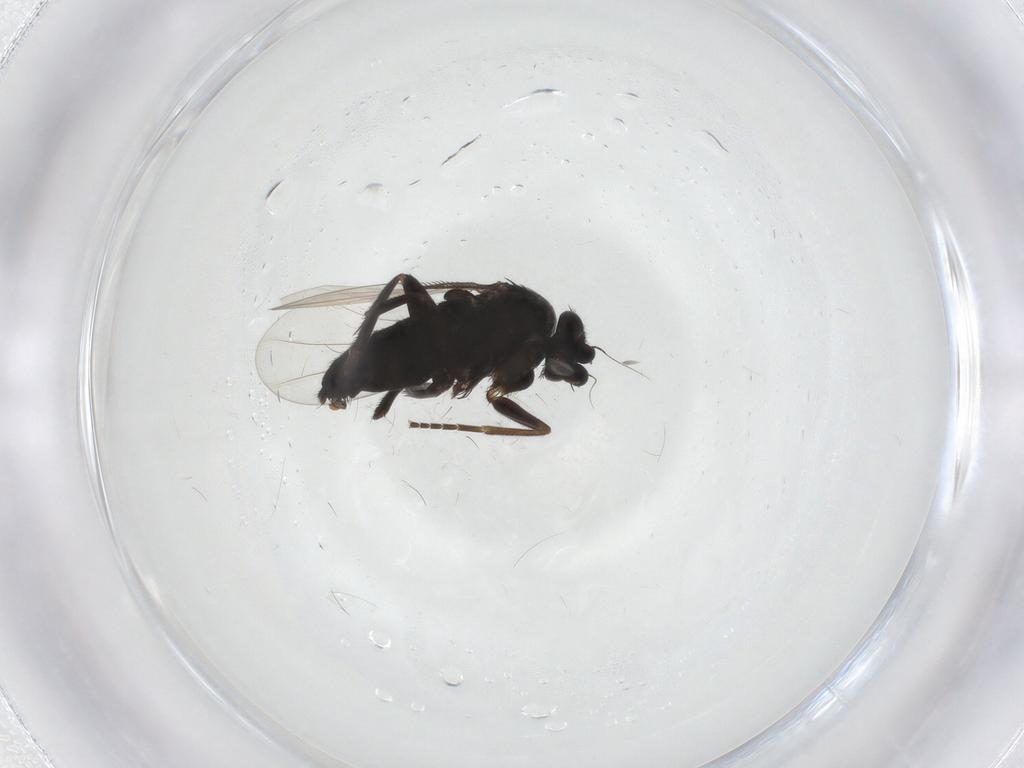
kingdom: Animalia
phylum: Arthropoda
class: Insecta
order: Diptera
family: Phoridae
